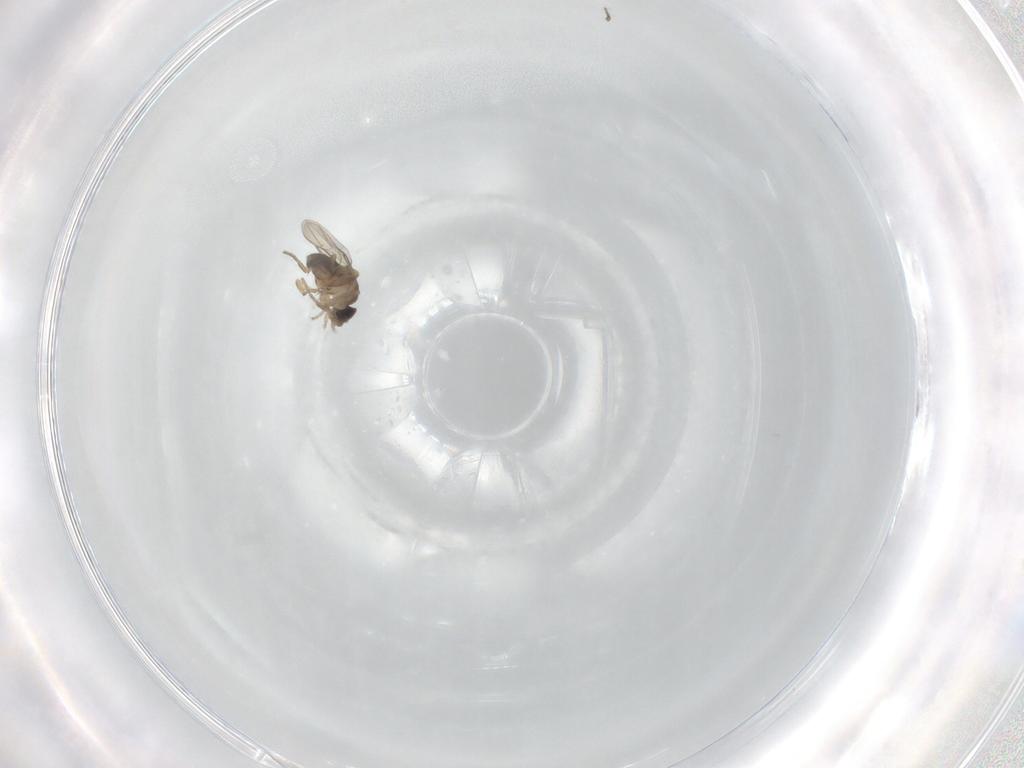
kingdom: Animalia
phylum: Arthropoda
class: Insecta
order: Diptera
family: Phoridae
